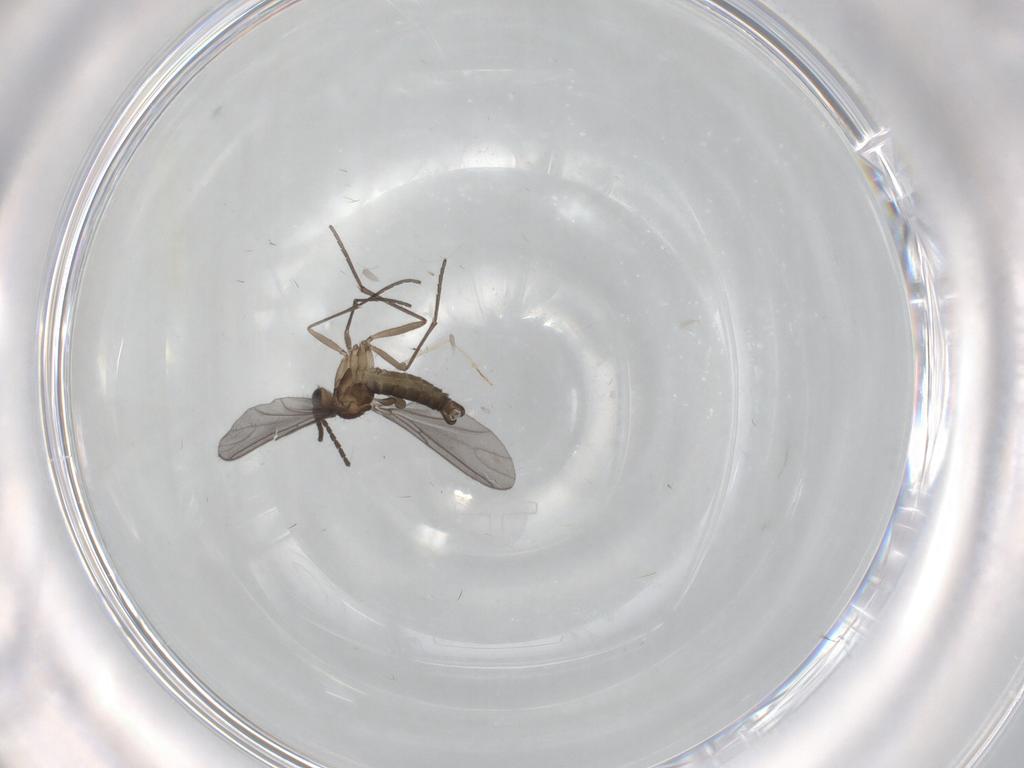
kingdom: Animalia
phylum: Arthropoda
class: Insecta
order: Diptera
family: Sciaridae
